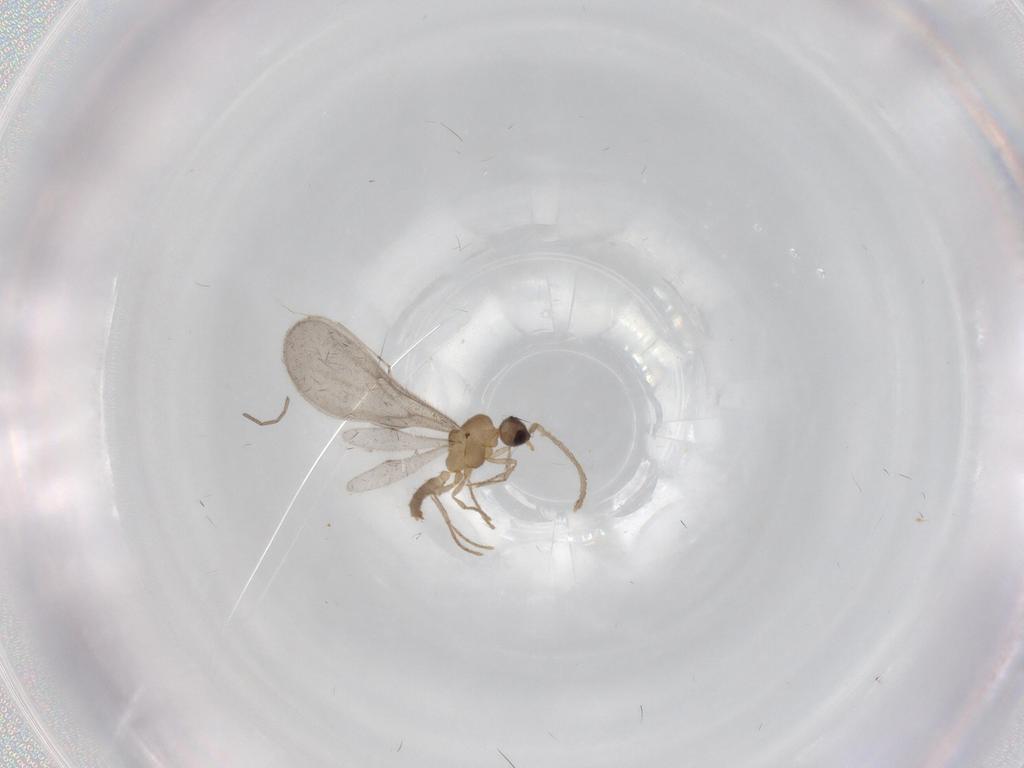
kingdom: Animalia
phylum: Arthropoda
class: Insecta
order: Hymenoptera
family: Formicidae
